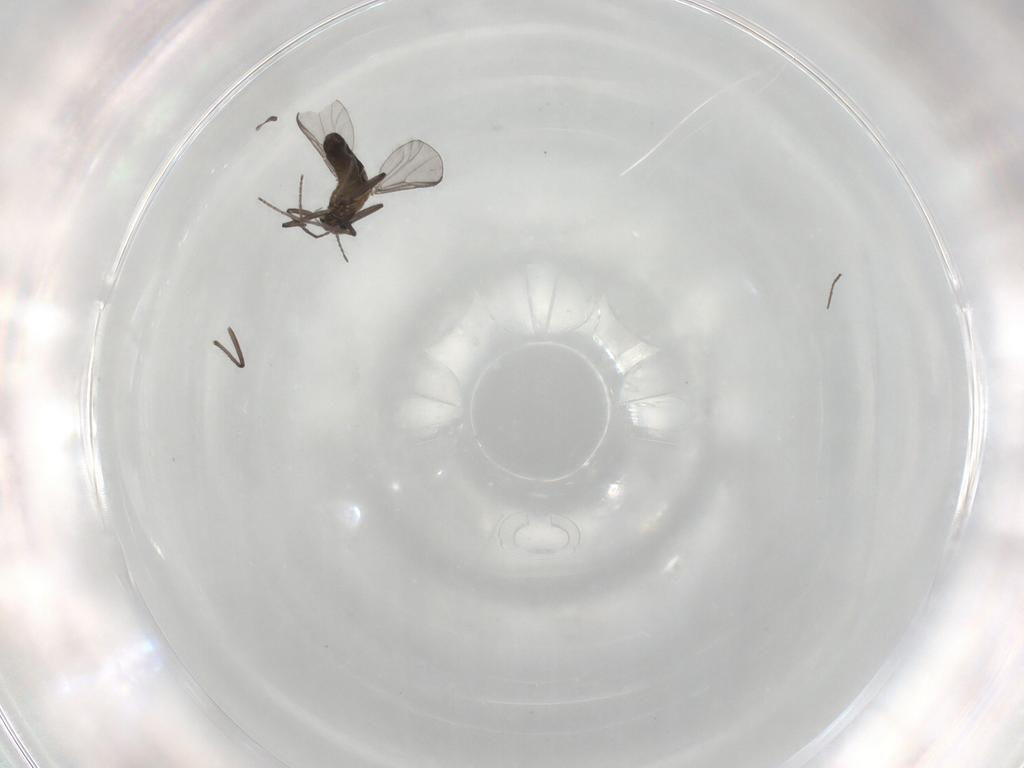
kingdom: Animalia
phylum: Arthropoda
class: Insecta
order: Diptera
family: Chironomidae
